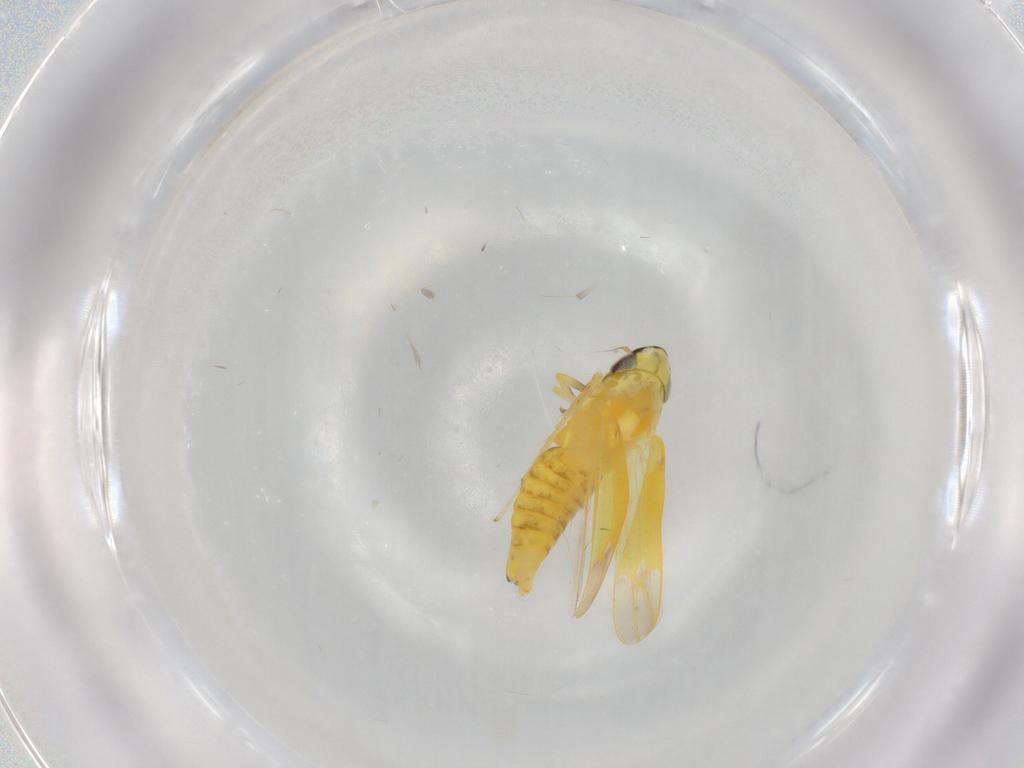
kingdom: Animalia
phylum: Arthropoda
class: Insecta
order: Hemiptera
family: Cicadellidae
